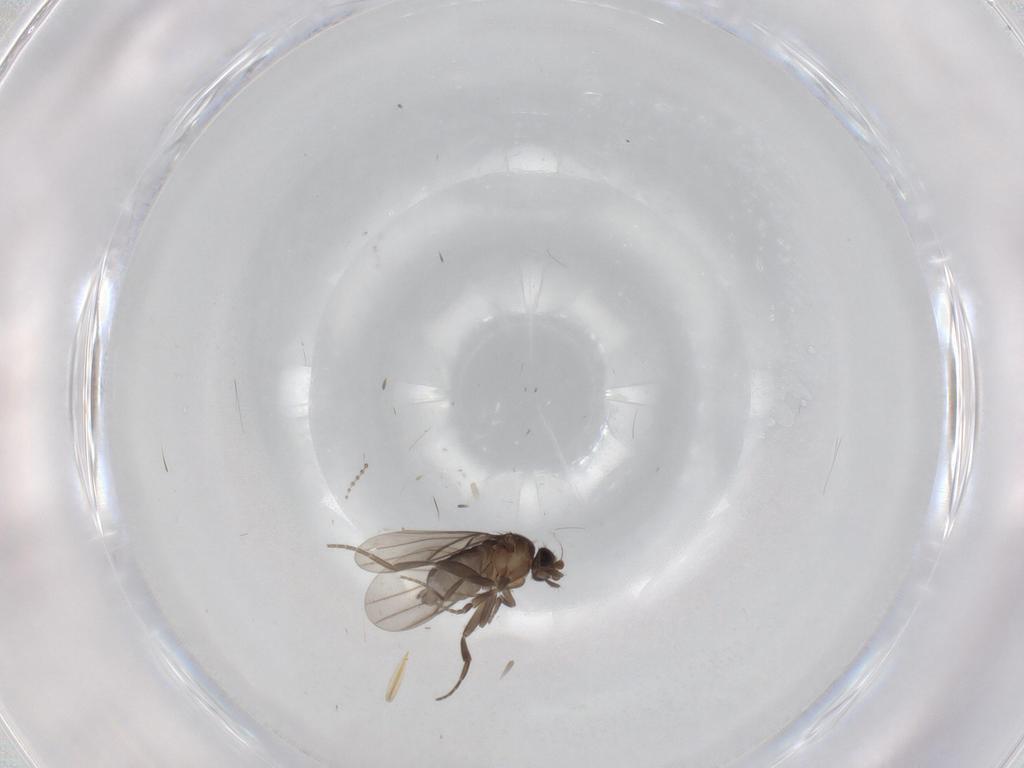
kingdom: Animalia
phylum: Arthropoda
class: Insecta
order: Diptera
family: Phoridae
